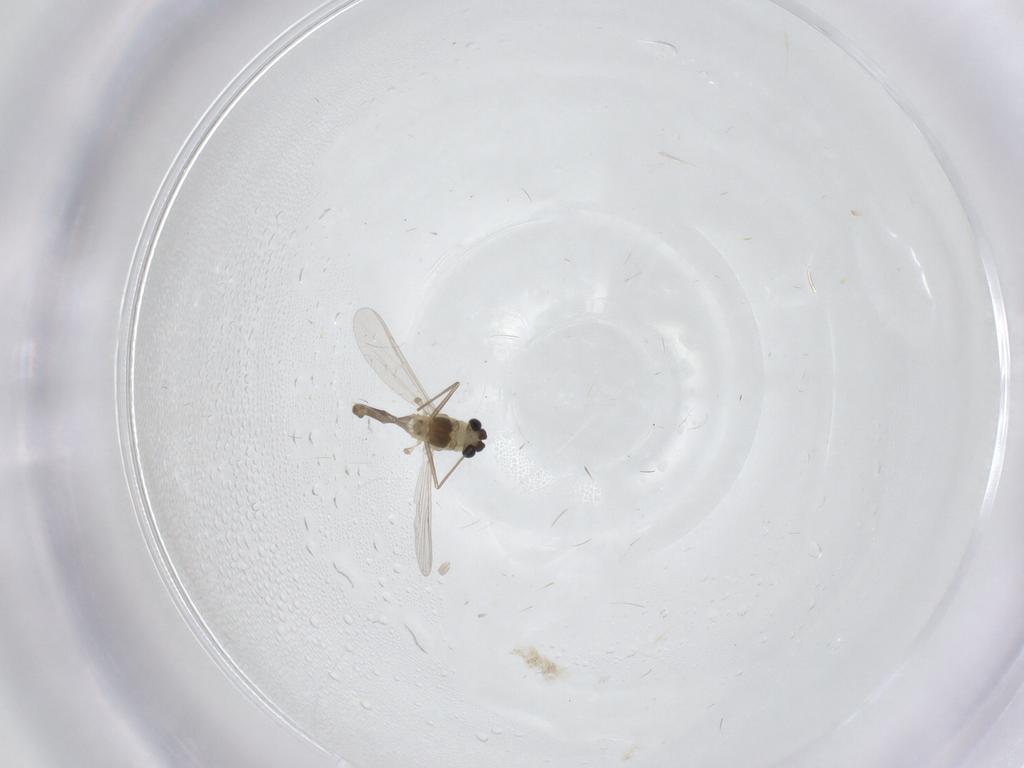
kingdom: Animalia
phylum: Arthropoda
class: Insecta
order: Diptera
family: Chironomidae
